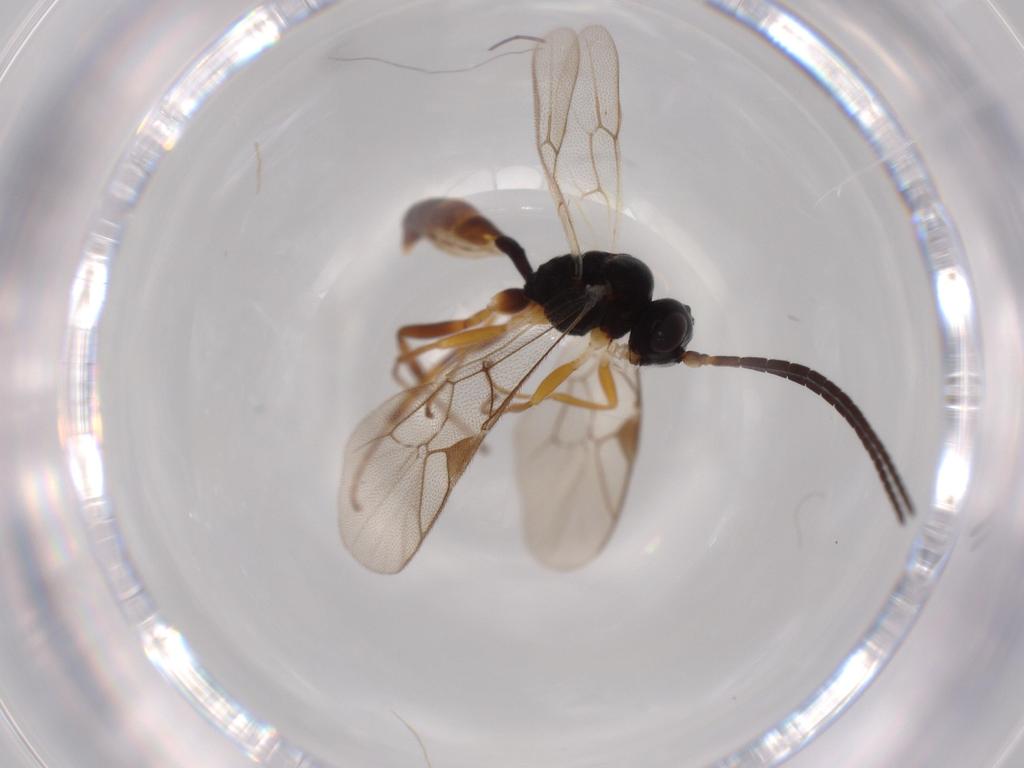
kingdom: Animalia
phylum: Arthropoda
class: Insecta
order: Hymenoptera
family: Ichneumonidae
